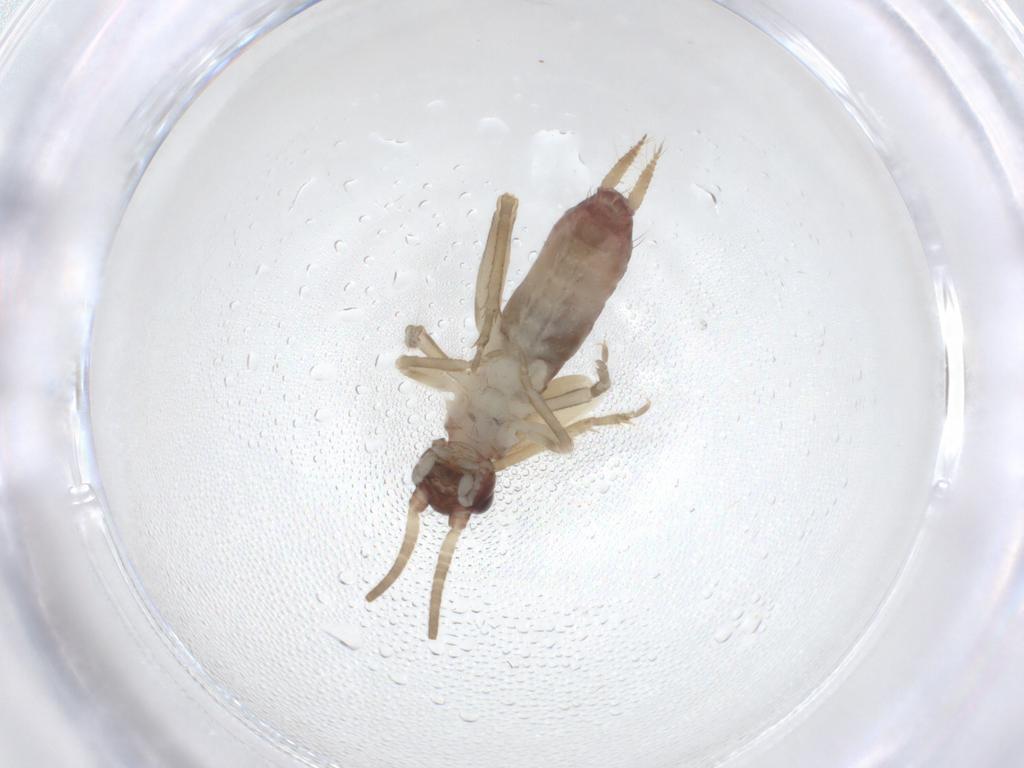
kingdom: Animalia
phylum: Arthropoda
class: Insecta
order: Orthoptera
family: Gryllidae
